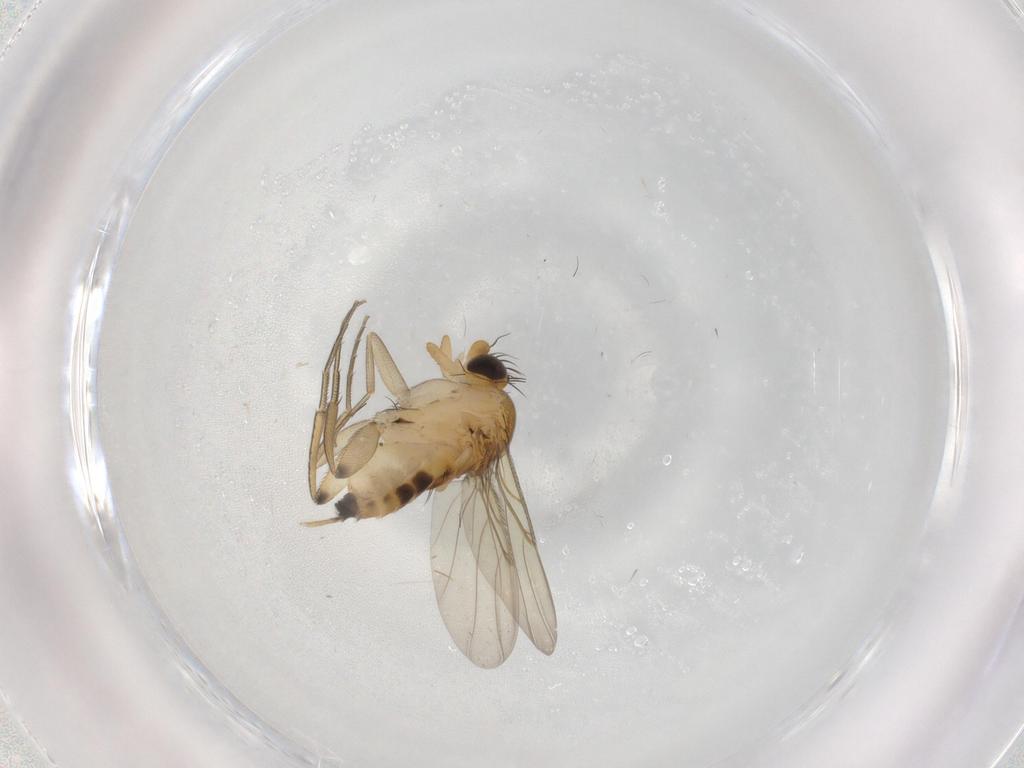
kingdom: Animalia
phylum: Arthropoda
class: Insecta
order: Diptera
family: Phoridae
